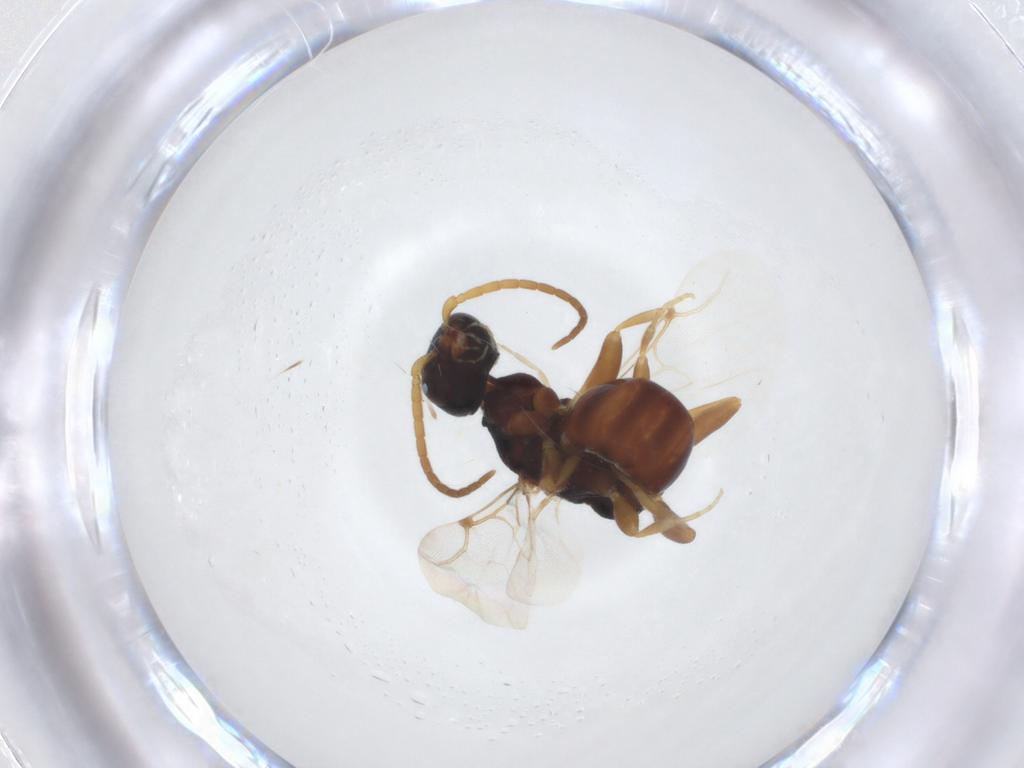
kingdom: Animalia
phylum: Arthropoda
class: Insecta
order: Hymenoptera
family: Bethylidae
